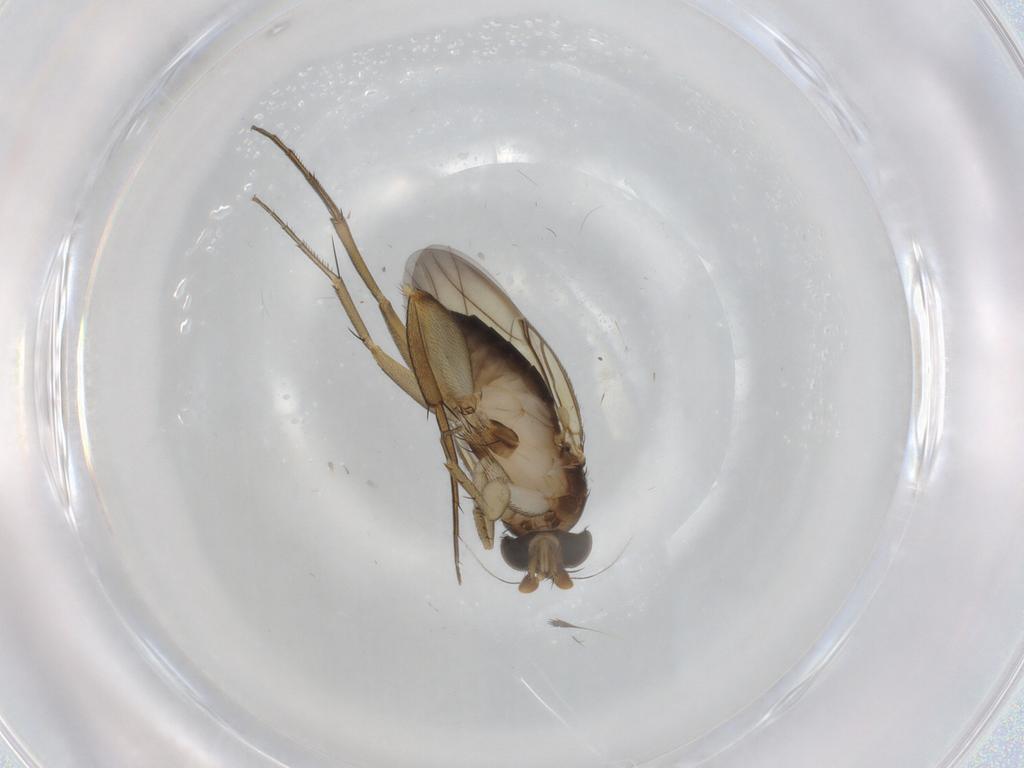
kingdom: Animalia
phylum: Arthropoda
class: Insecta
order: Diptera
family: Phoridae
